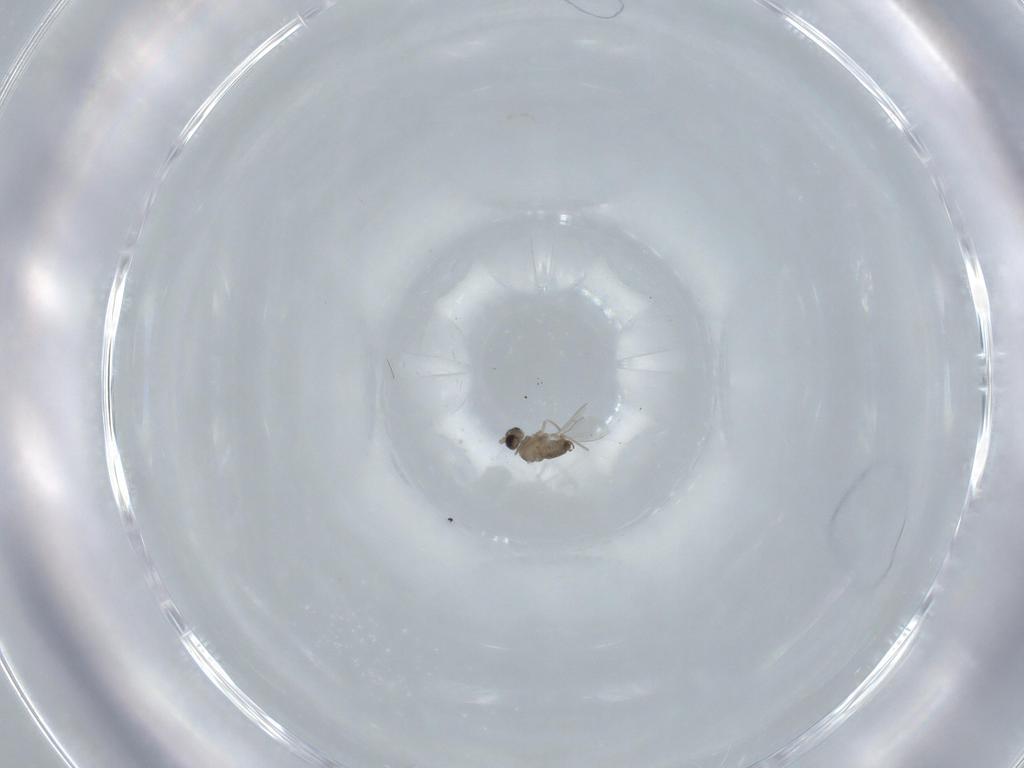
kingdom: Animalia
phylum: Arthropoda
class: Insecta
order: Diptera
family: Cecidomyiidae
